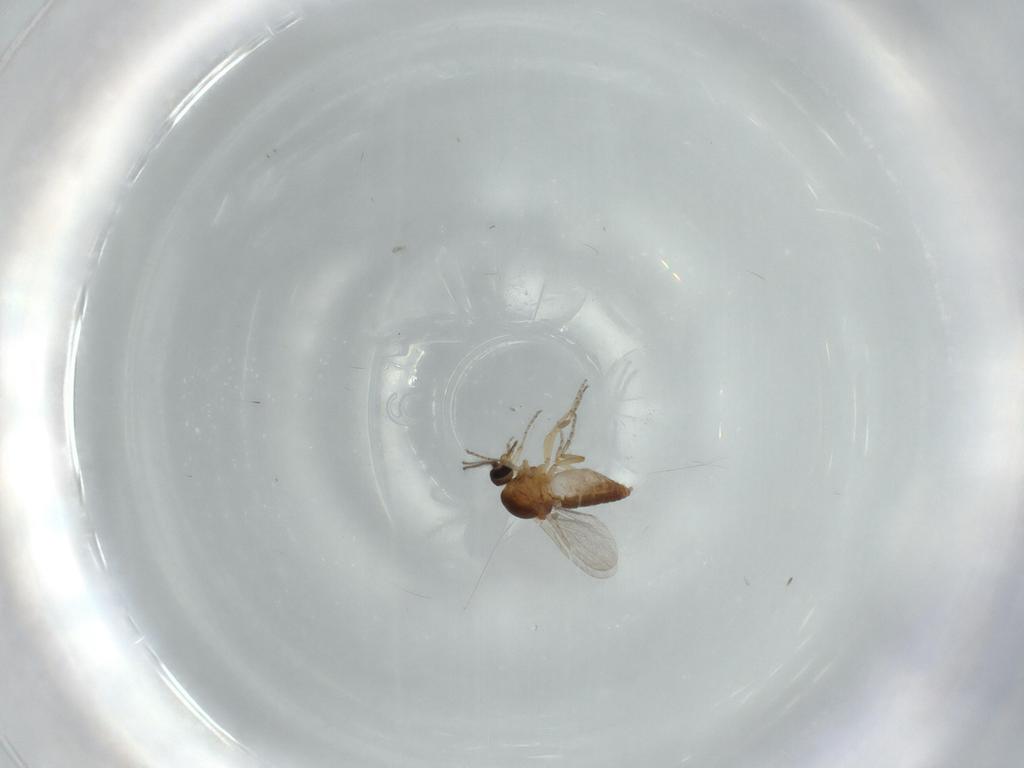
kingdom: Animalia
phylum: Arthropoda
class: Insecta
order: Diptera
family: Ceratopogonidae
